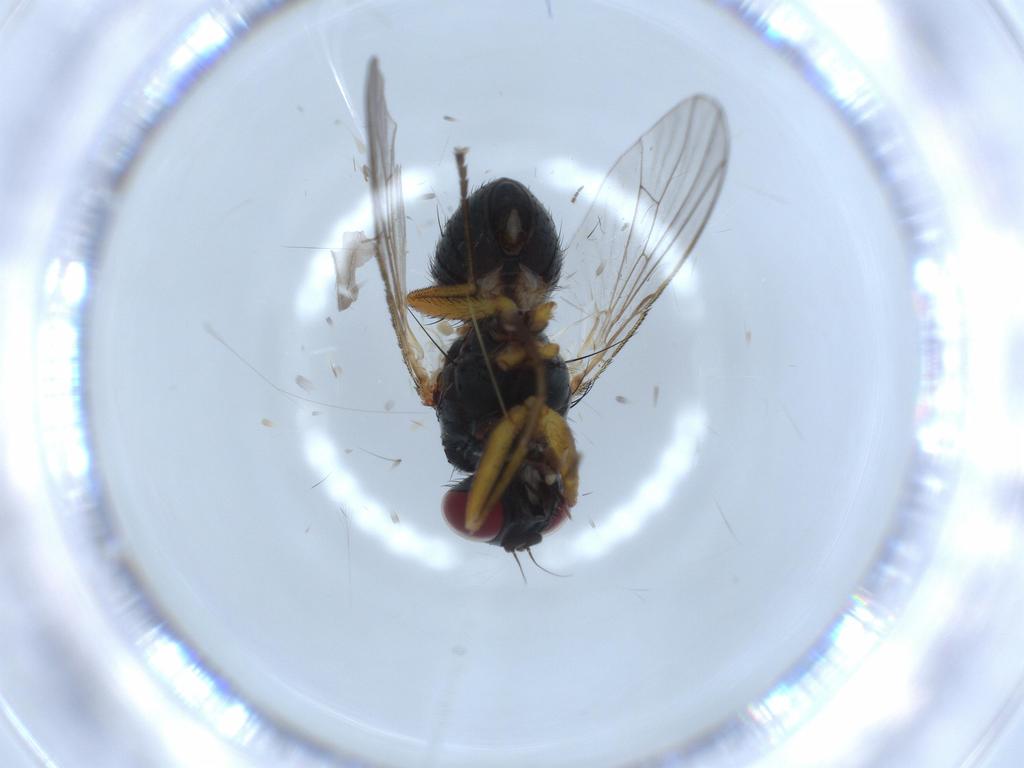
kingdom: Animalia
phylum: Arthropoda
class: Insecta
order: Diptera
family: Muscidae
